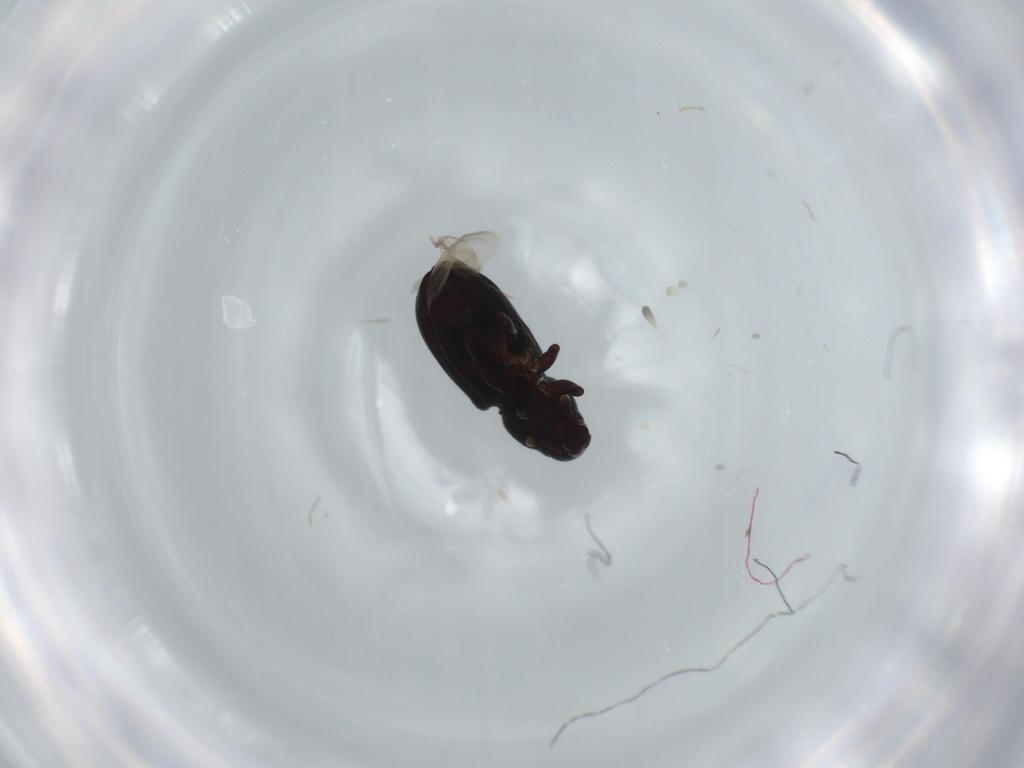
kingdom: Animalia
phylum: Arthropoda
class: Insecta
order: Coleoptera
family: Curculionidae
